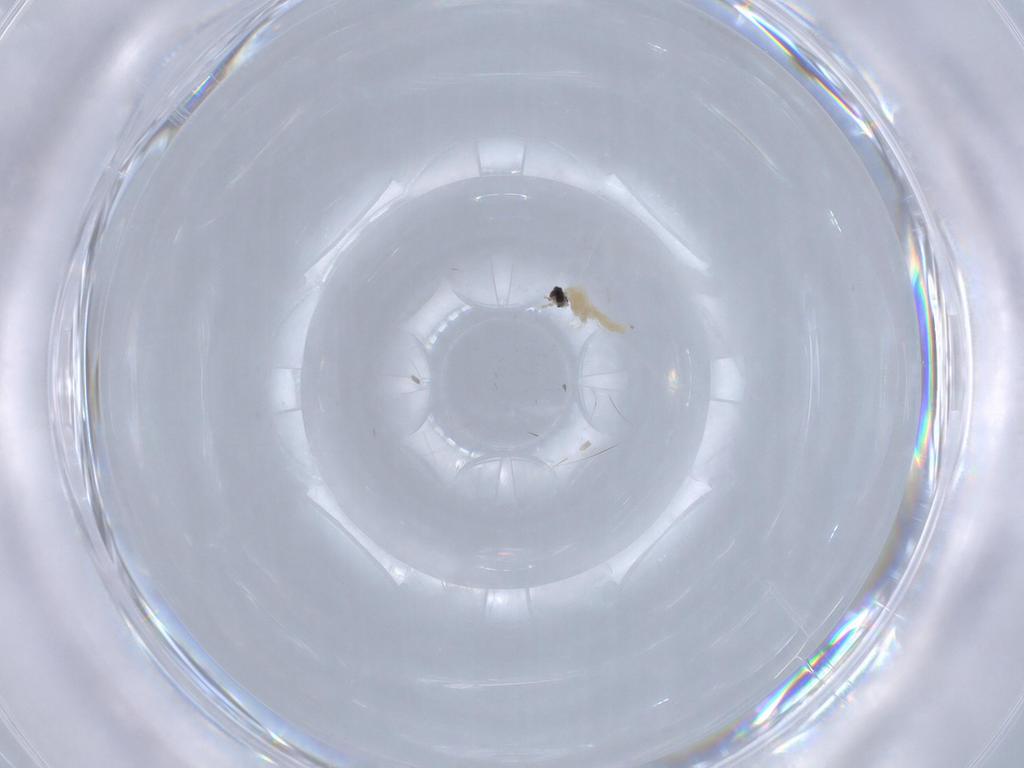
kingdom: Animalia
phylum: Arthropoda
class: Insecta
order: Diptera
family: Cecidomyiidae
